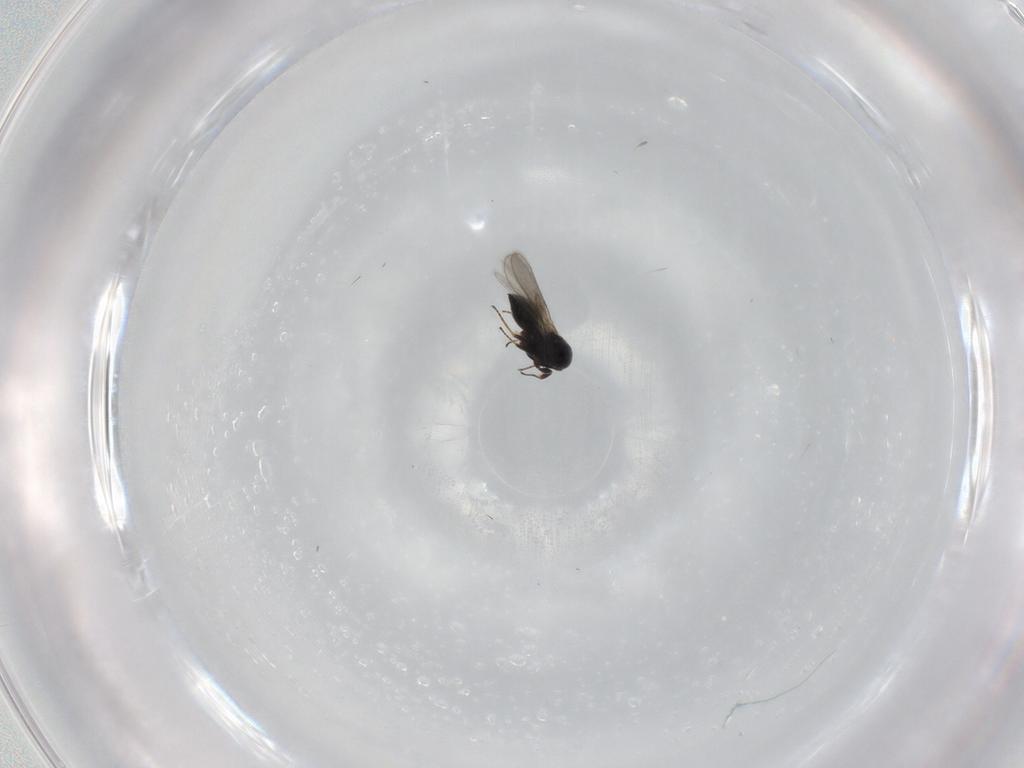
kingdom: Animalia
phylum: Arthropoda
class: Insecta
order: Hymenoptera
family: Scelionidae
